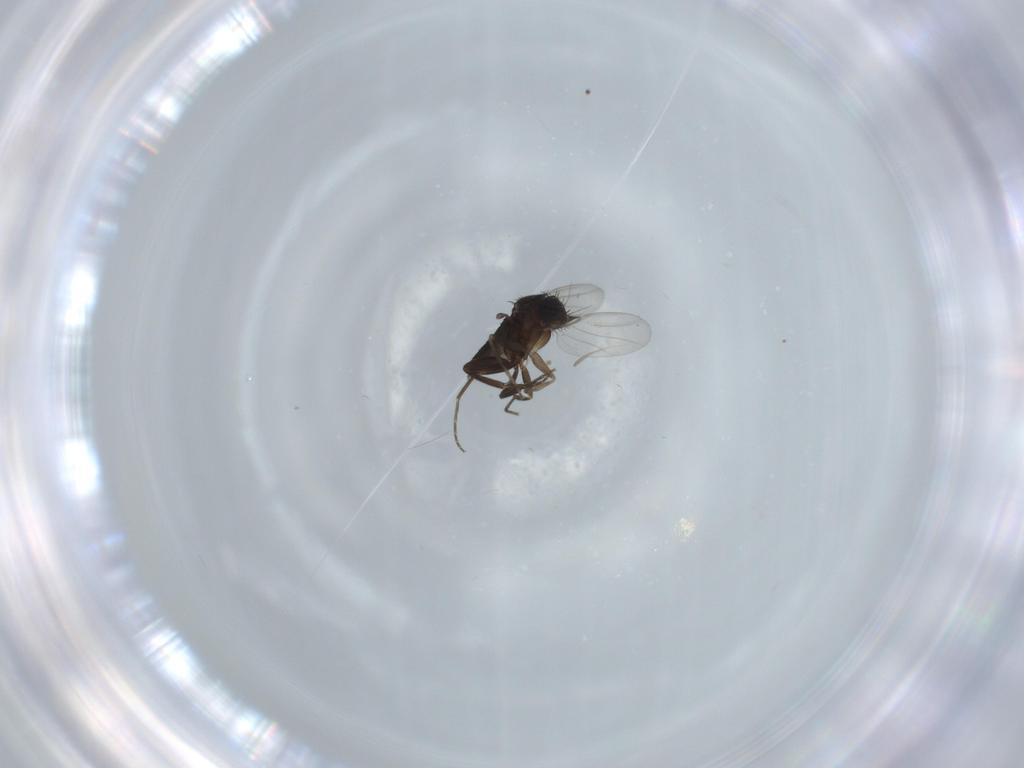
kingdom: Animalia
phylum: Arthropoda
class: Insecta
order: Diptera
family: Phoridae
